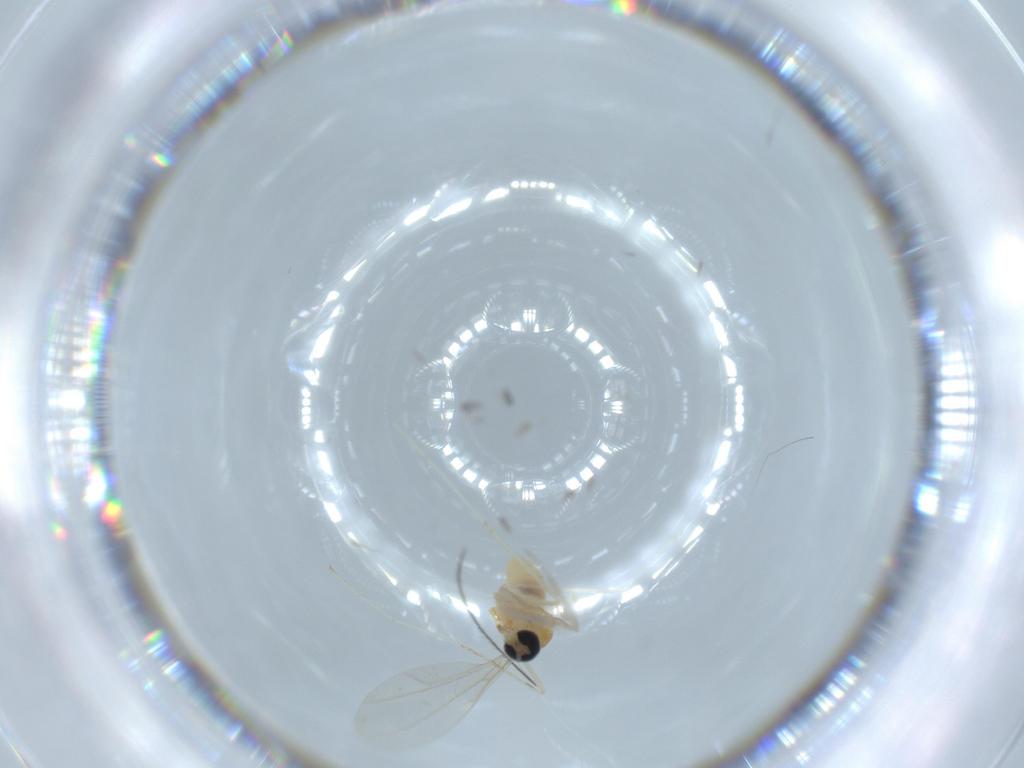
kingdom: Animalia
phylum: Arthropoda
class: Insecta
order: Diptera
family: Cecidomyiidae
